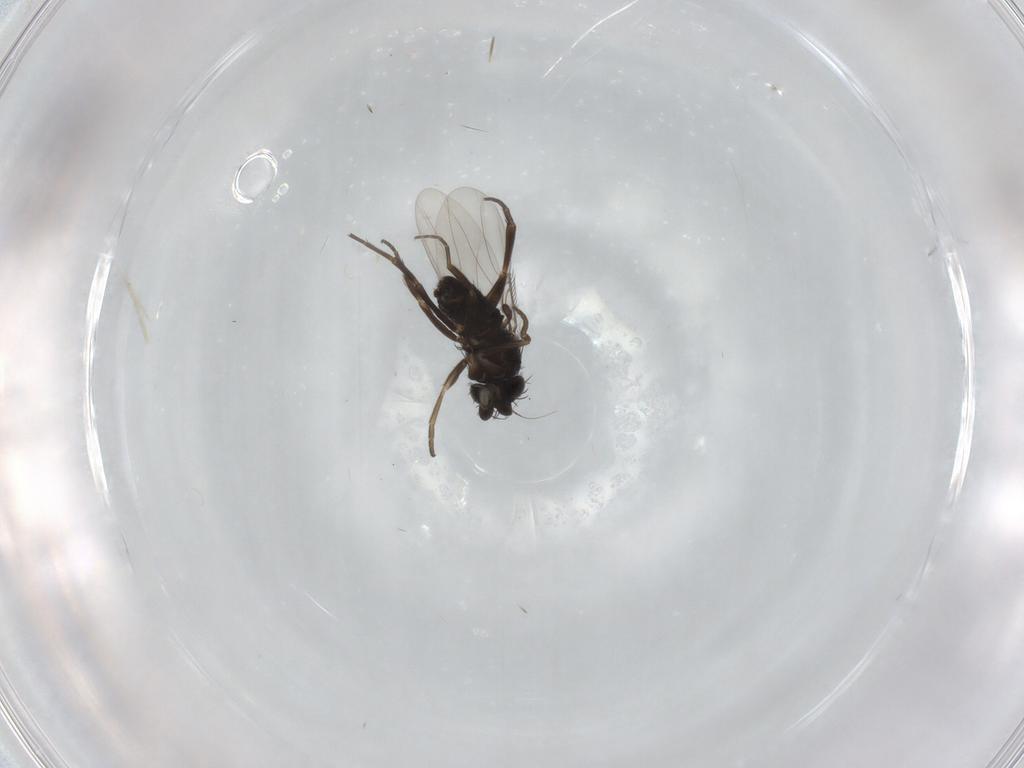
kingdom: Animalia
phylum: Arthropoda
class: Insecta
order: Diptera
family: Phoridae
